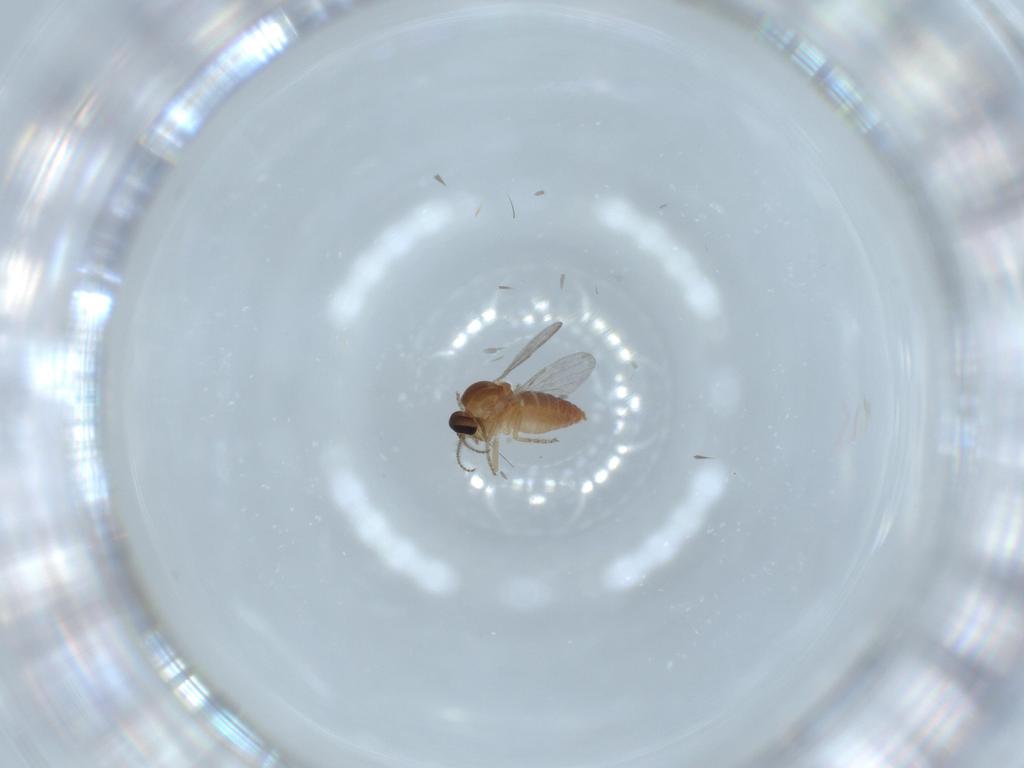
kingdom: Animalia
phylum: Arthropoda
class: Insecta
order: Diptera
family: Ceratopogonidae
